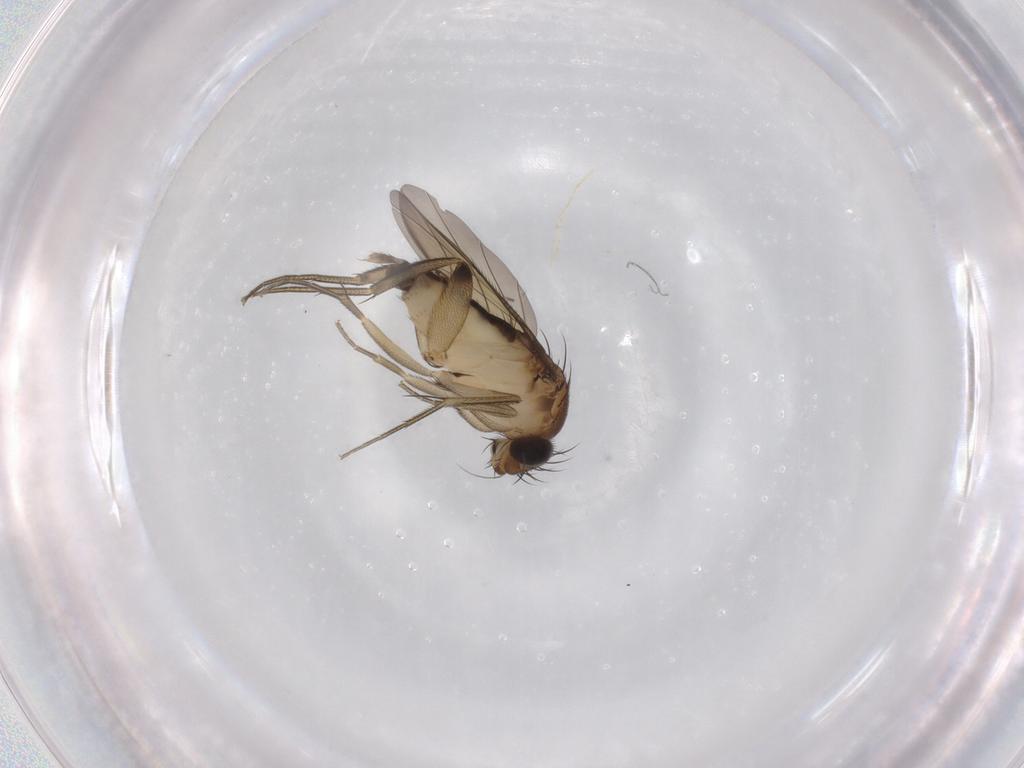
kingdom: Animalia
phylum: Arthropoda
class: Insecta
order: Diptera
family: Phoridae
